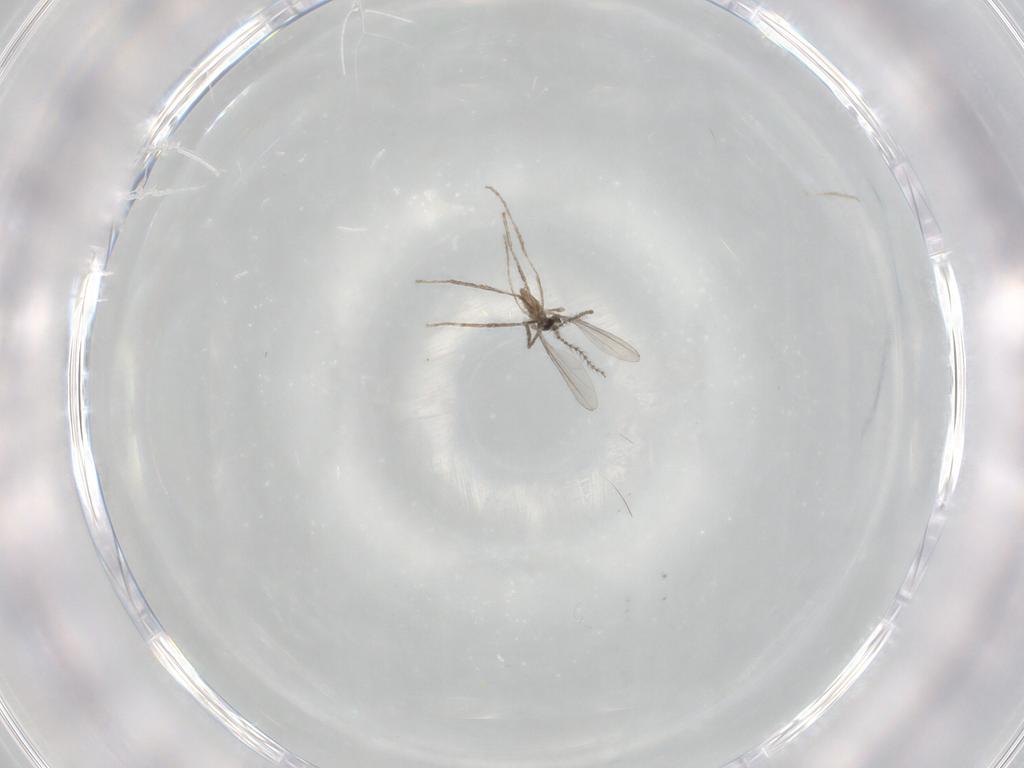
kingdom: Animalia
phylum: Arthropoda
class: Insecta
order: Diptera
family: Cecidomyiidae
